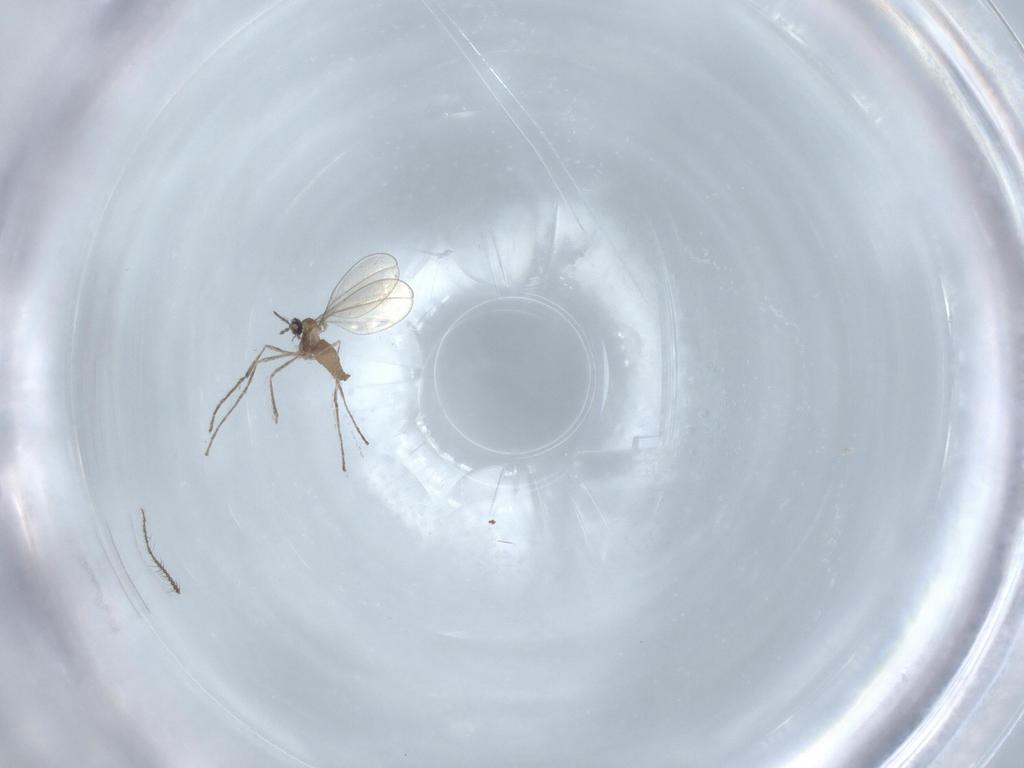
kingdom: Animalia
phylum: Arthropoda
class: Insecta
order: Diptera
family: Ceratopogonidae
